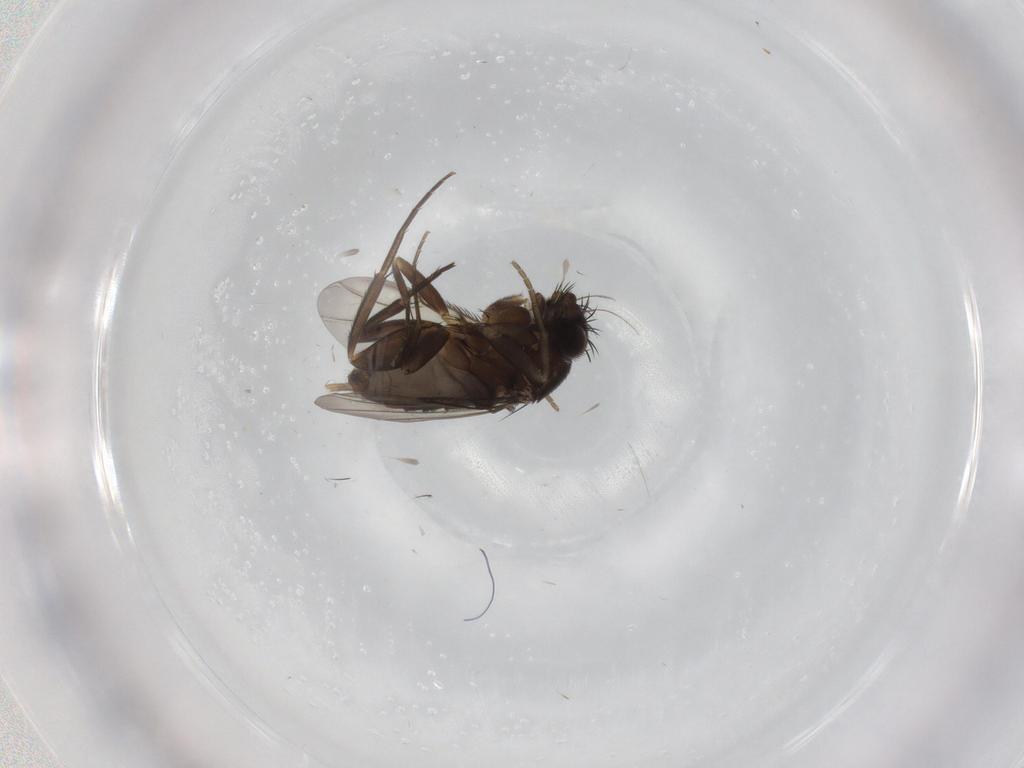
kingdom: Animalia
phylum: Arthropoda
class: Insecta
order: Diptera
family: Phoridae
